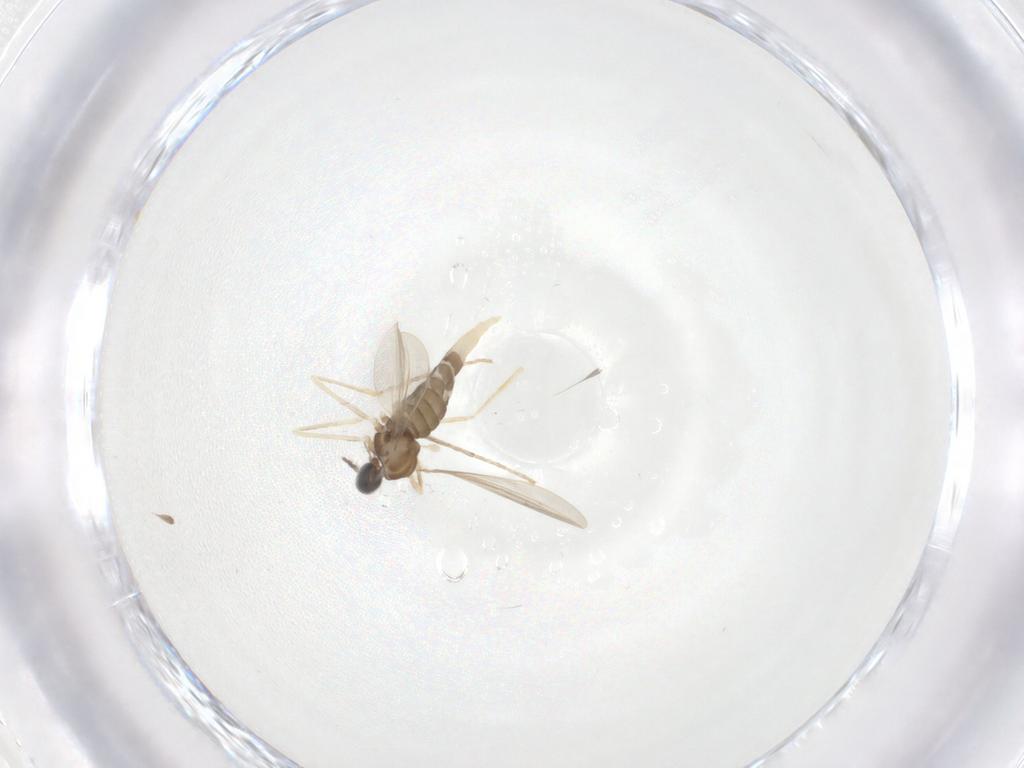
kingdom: Animalia
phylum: Arthropoda
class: Insecta
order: Diptera
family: Cecidomyiidae
